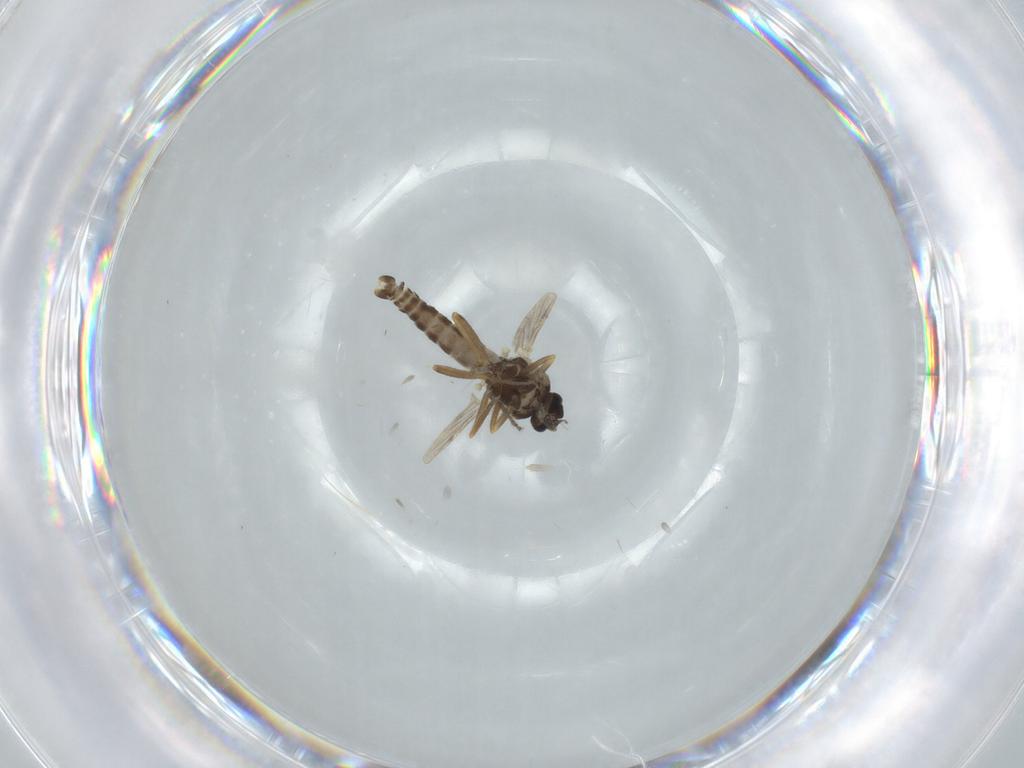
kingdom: Animalia
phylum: Arthropoda
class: Insecta
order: Diptera
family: Ceratopogonidae
